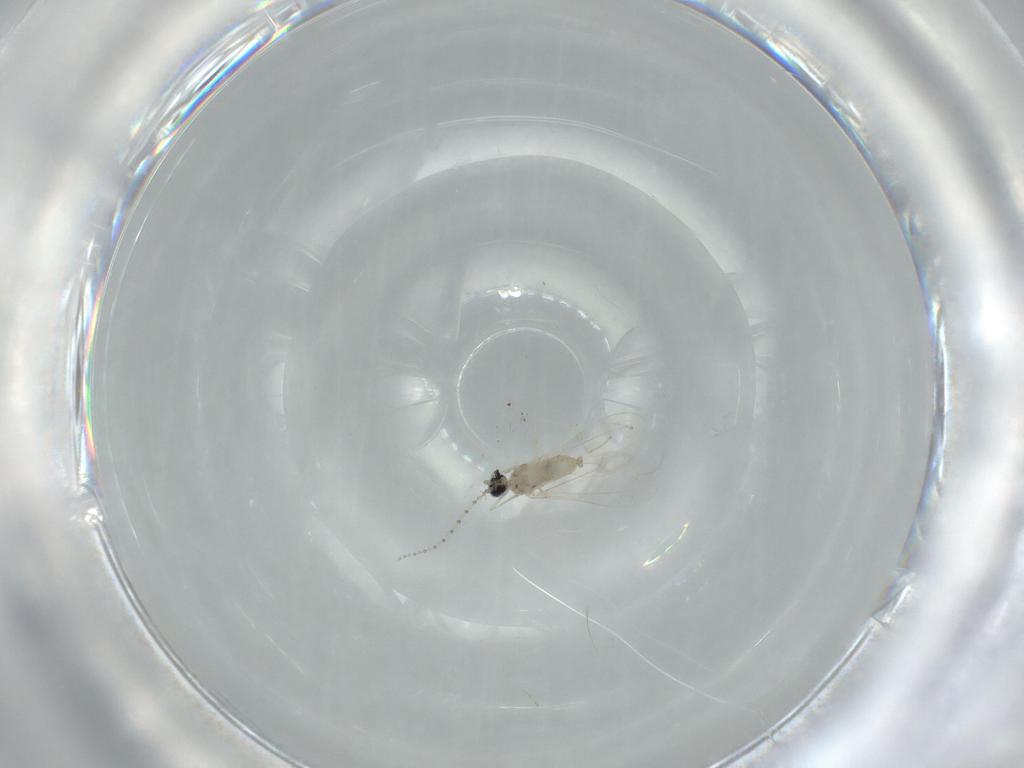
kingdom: Animalia
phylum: Arthropoda
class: Insecta
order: Diptera
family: Cecidomyiidae
